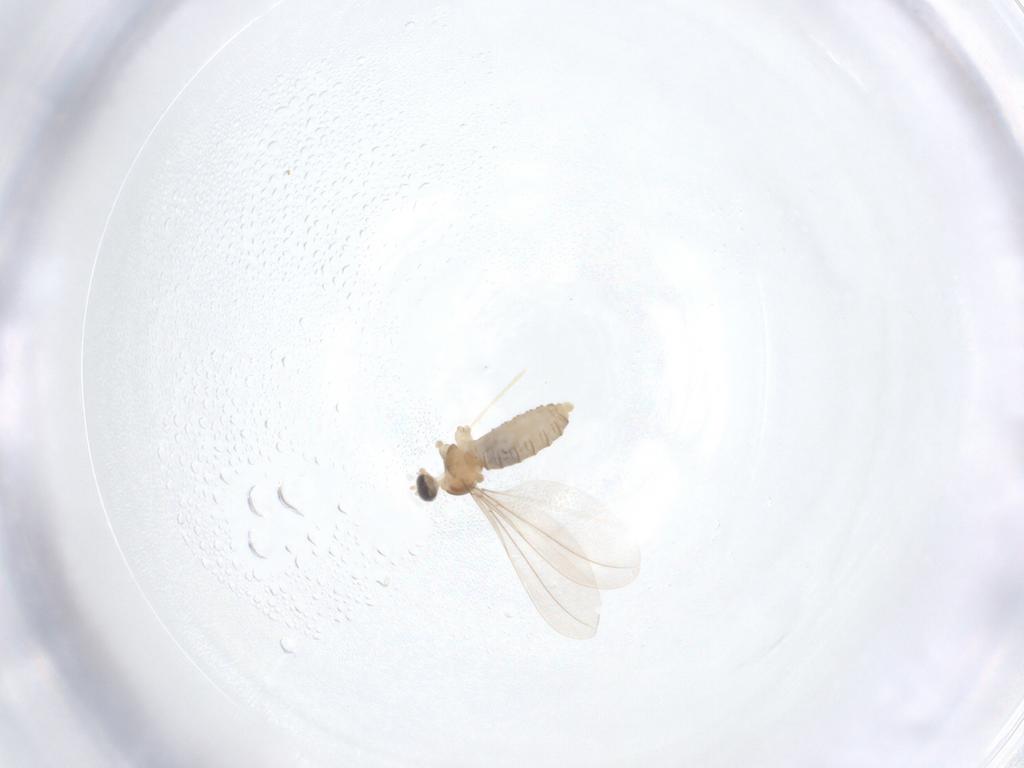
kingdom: Animalia
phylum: Arthropoda
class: Insecta
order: Diptera
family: Cecidomyiidae
